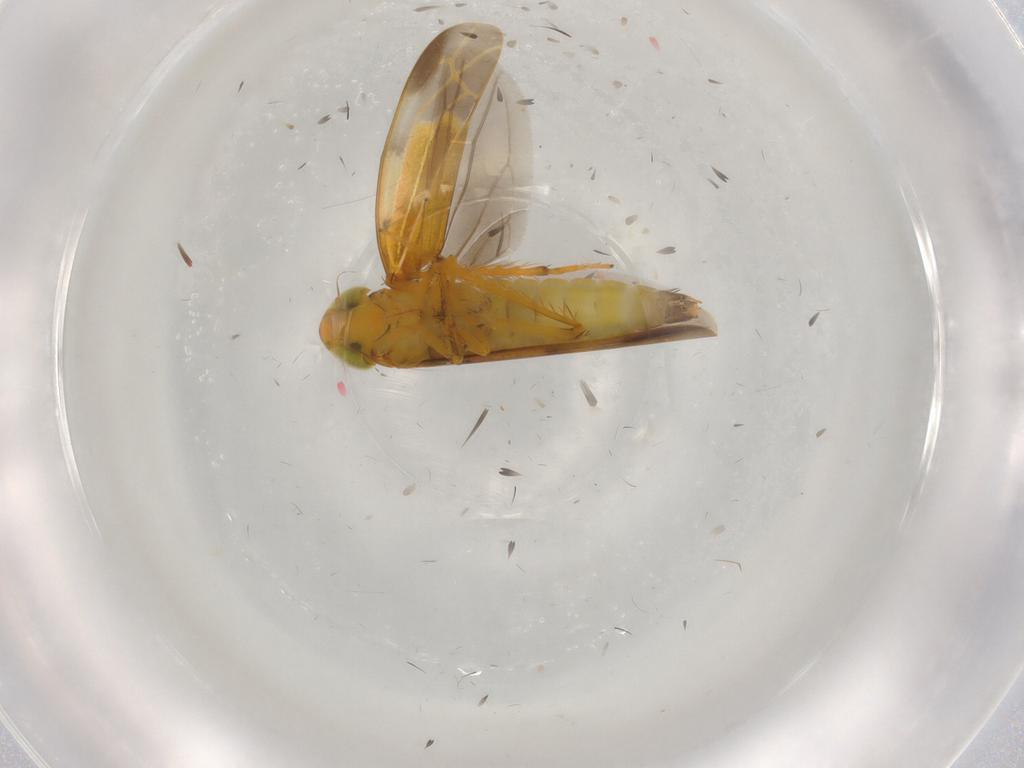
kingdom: Animalia
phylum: Arthropoda
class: Insecta
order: Hemiptera
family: Cicadellidae
